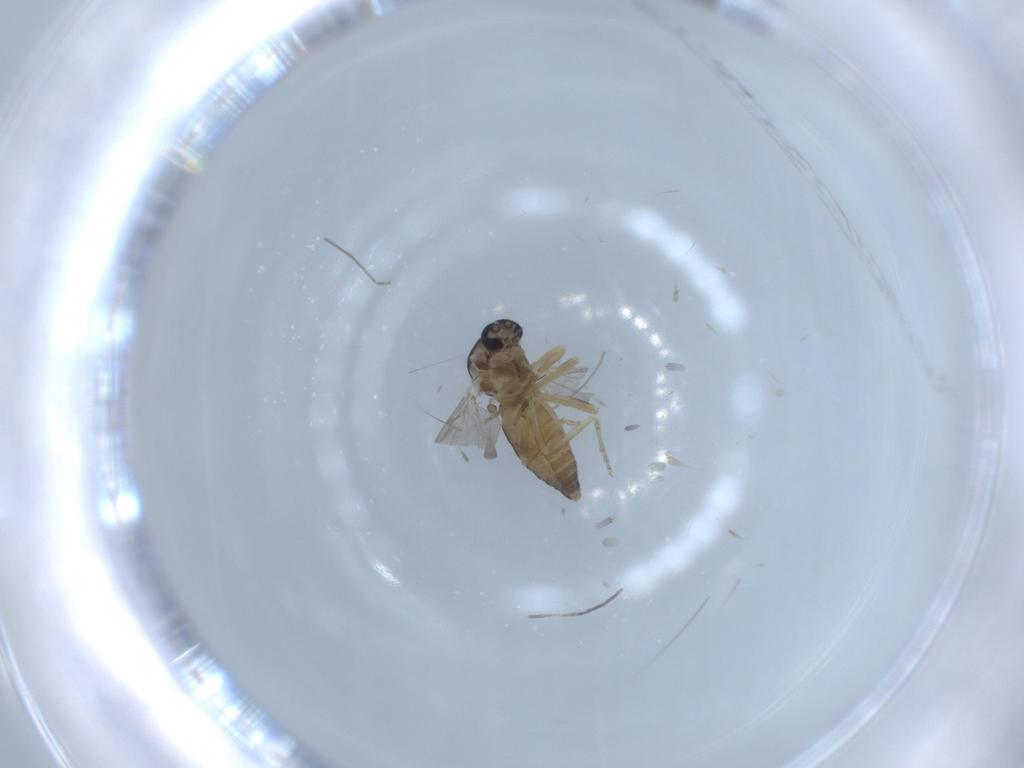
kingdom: Animalia
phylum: Arthropoda
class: Insecta
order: Diptera
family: Ceratopogonidae
